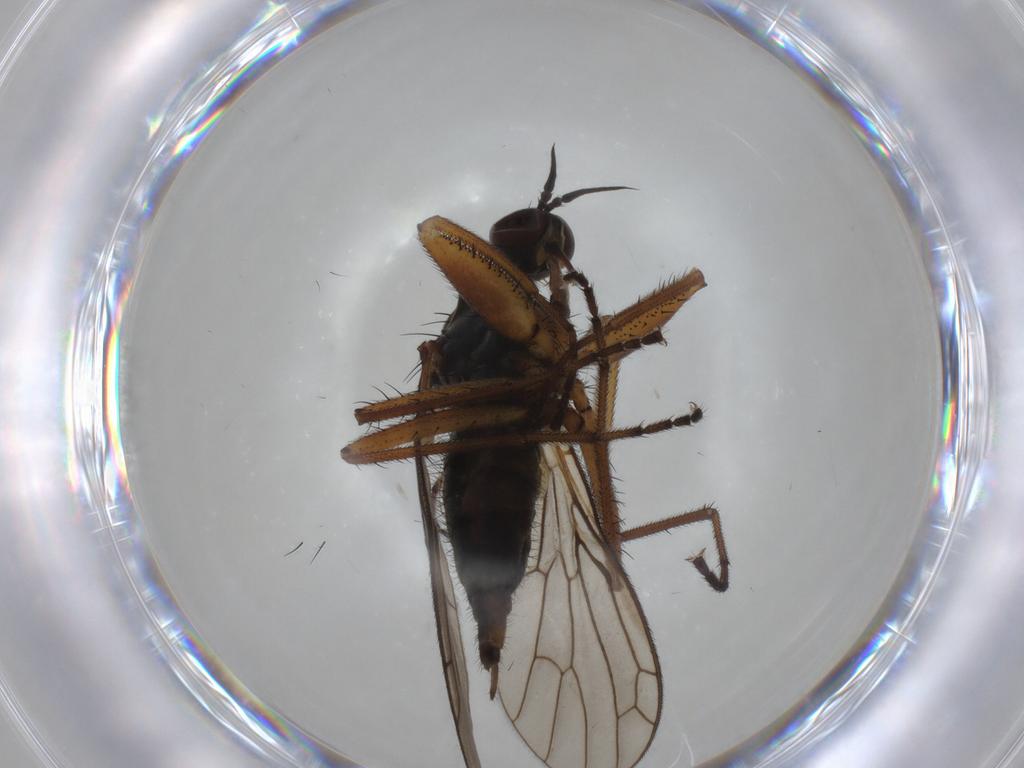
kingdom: Animalia
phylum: Arthropoda
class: Insecta
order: Diptera
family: Empididae
